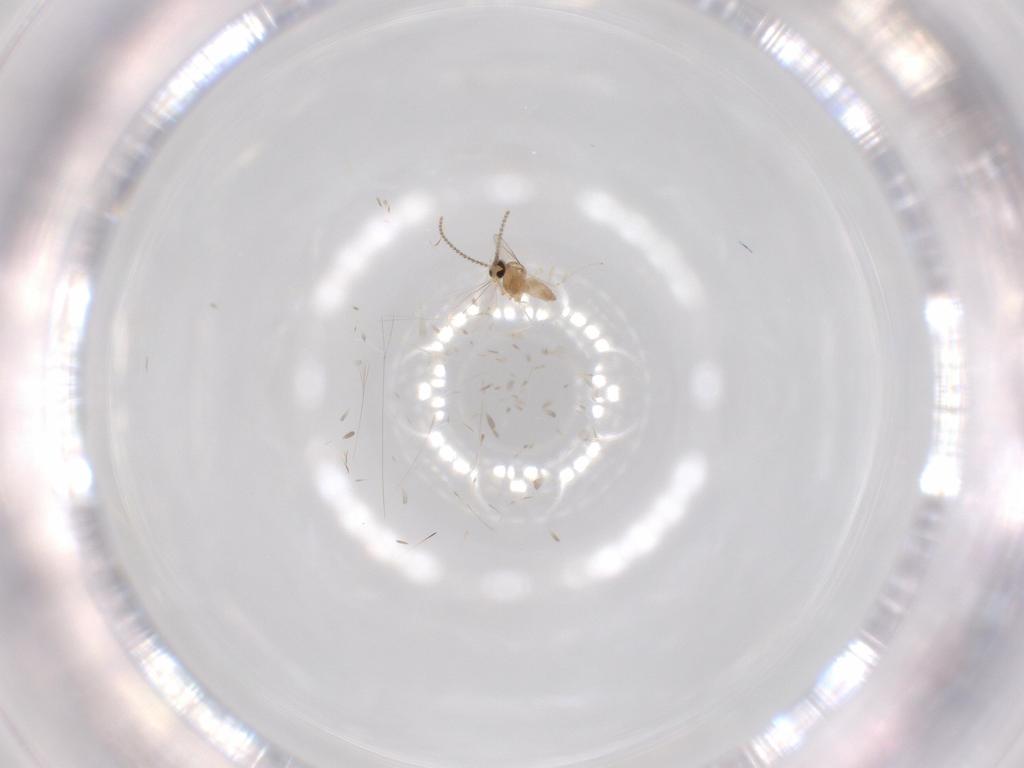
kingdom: Animalia
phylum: Arthropoda
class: Insecta
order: Diptera
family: Cecidomyiidae
